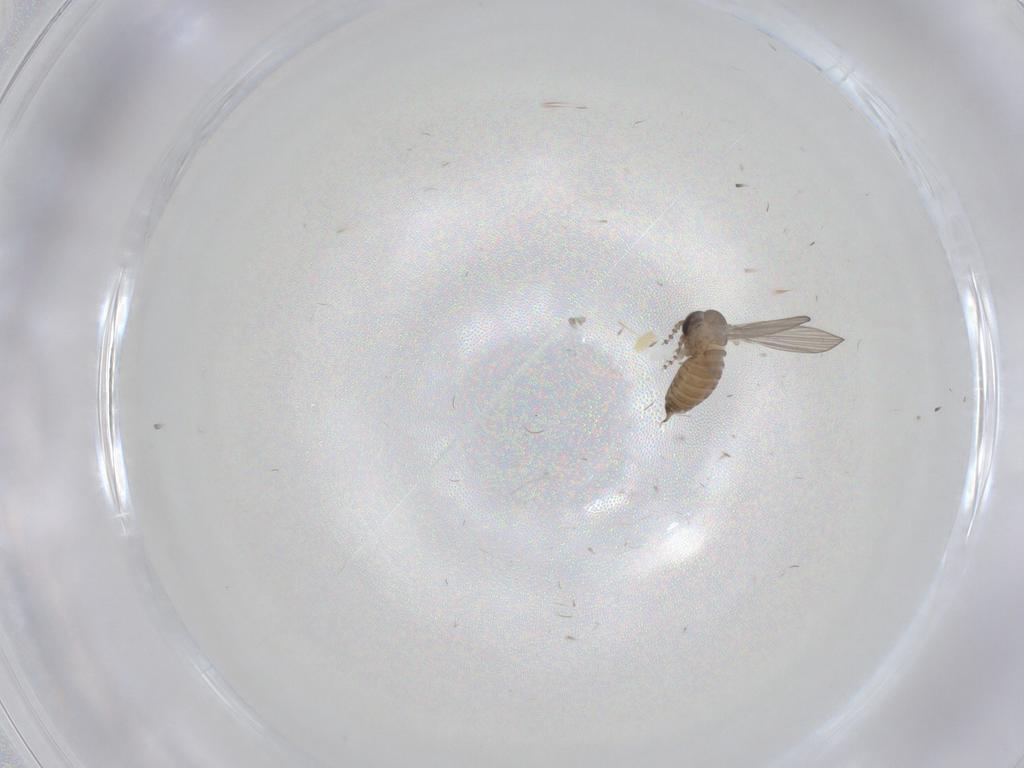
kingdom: Animalia
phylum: Arthropoda
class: Insecta
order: Diptera
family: Psychodidae
